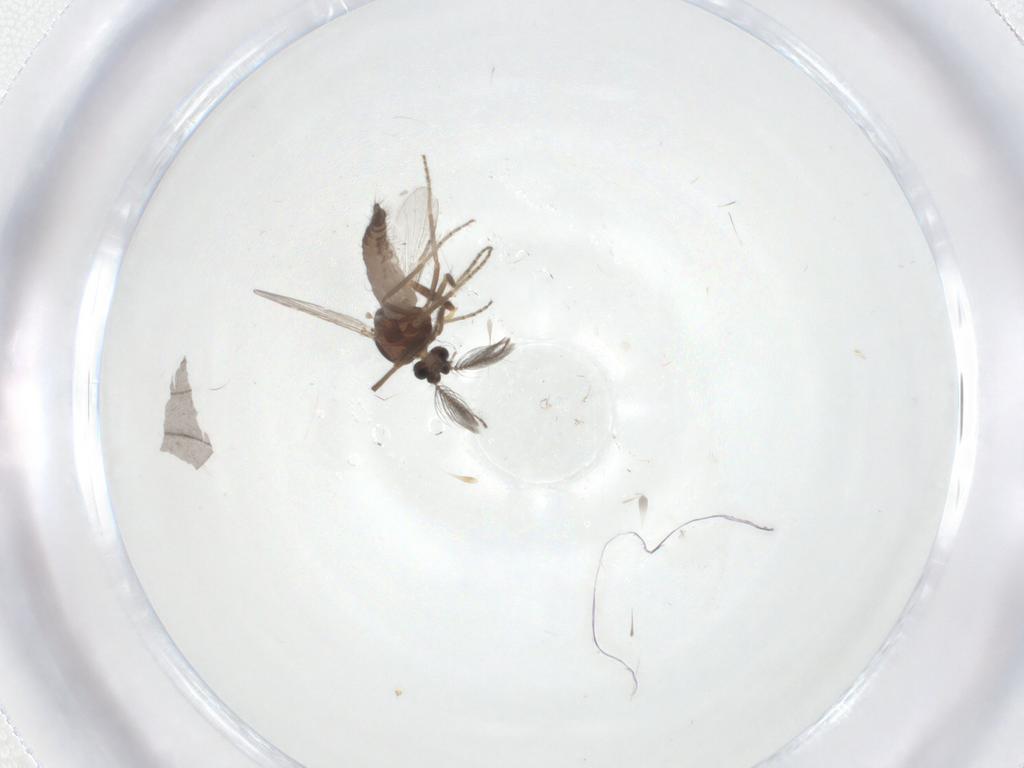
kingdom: Animalia
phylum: Arthropoda
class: Insecta
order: Diptera
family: Ceratopogonidae
